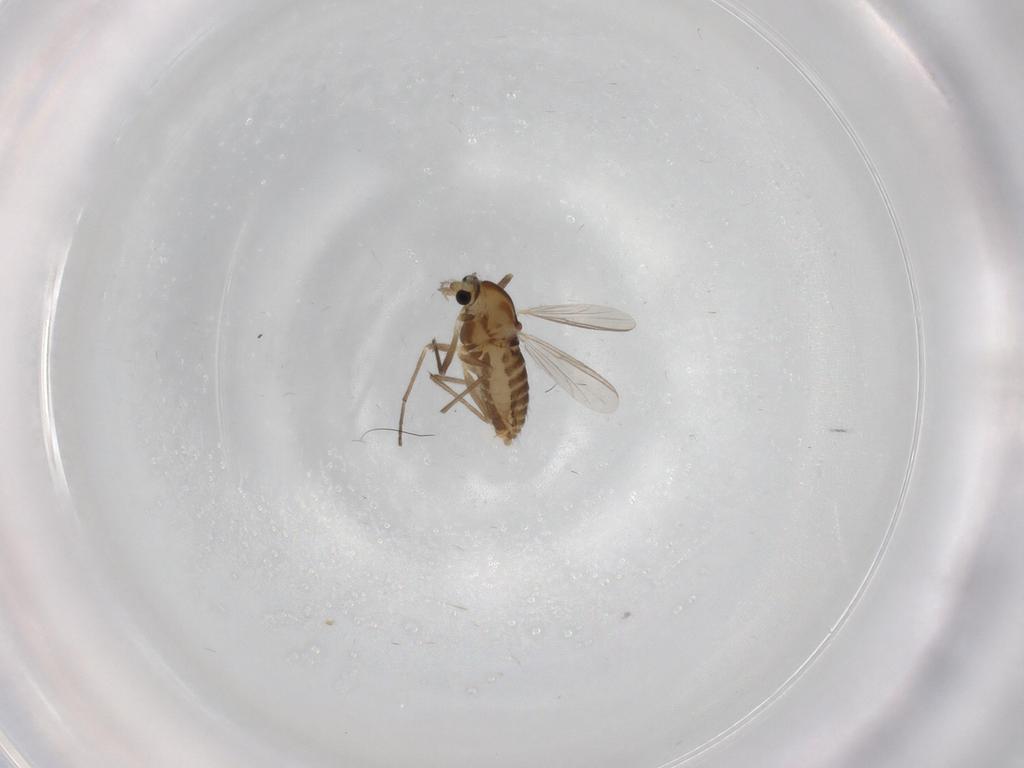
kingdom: Animalia
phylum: Arthropoda
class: Insecta
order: Diptera
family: Chironomidae
